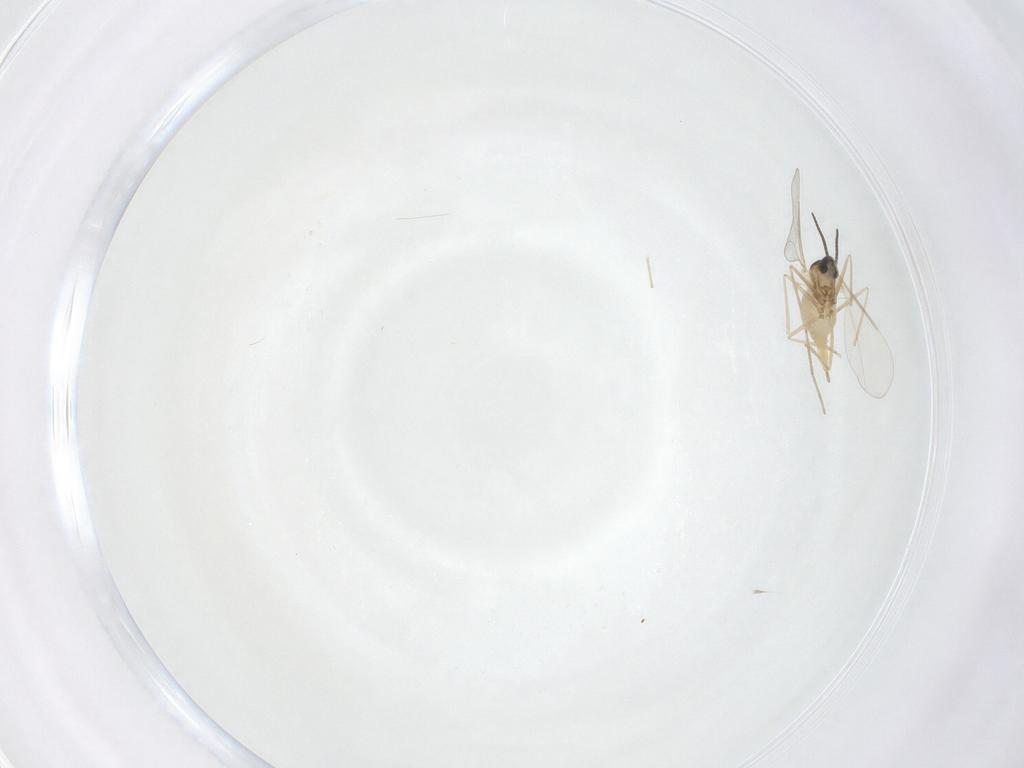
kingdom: Animalia
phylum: Arthropoda
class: Insecta
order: Diptera
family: Cecidomyiidae
